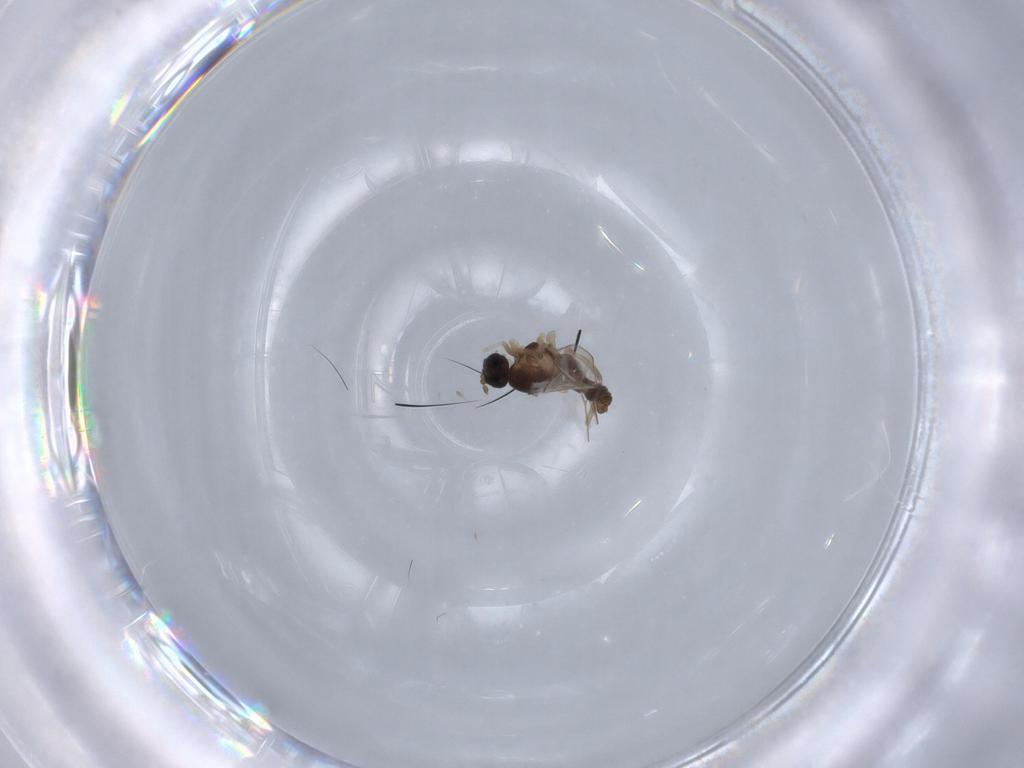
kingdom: Animalia
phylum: Arthropoda
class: Insecta
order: Diptera
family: Cecidomyiidae
